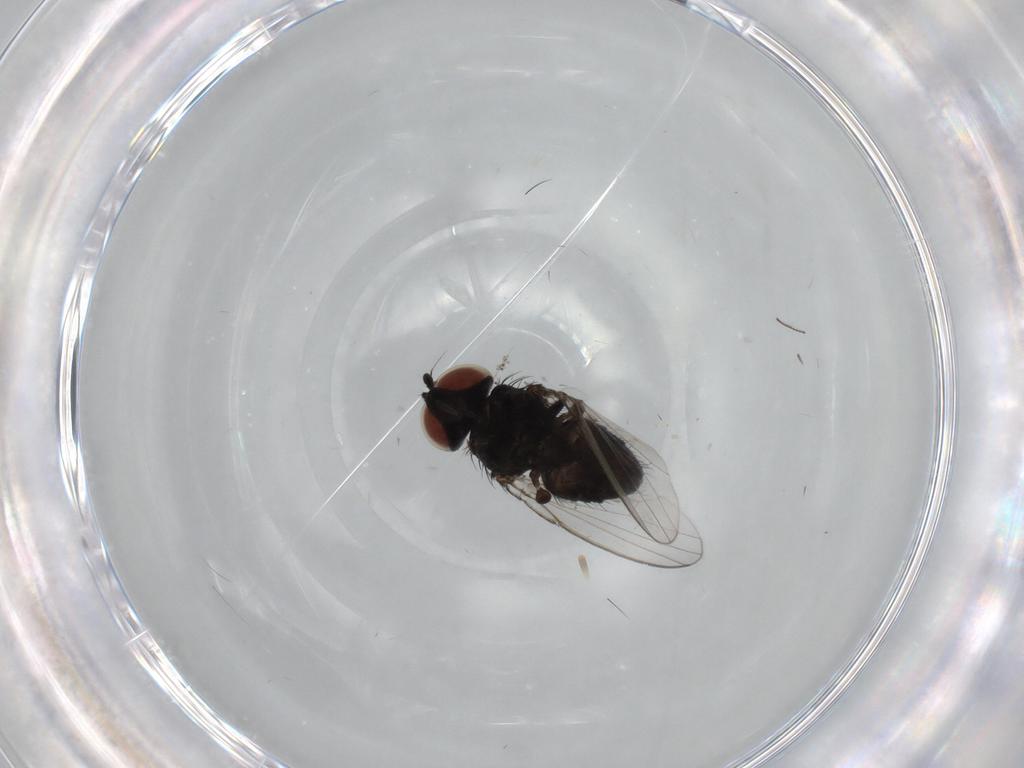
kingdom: Animalia
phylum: Arthropoda
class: Insecta
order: Diptera
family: Milichiidae
